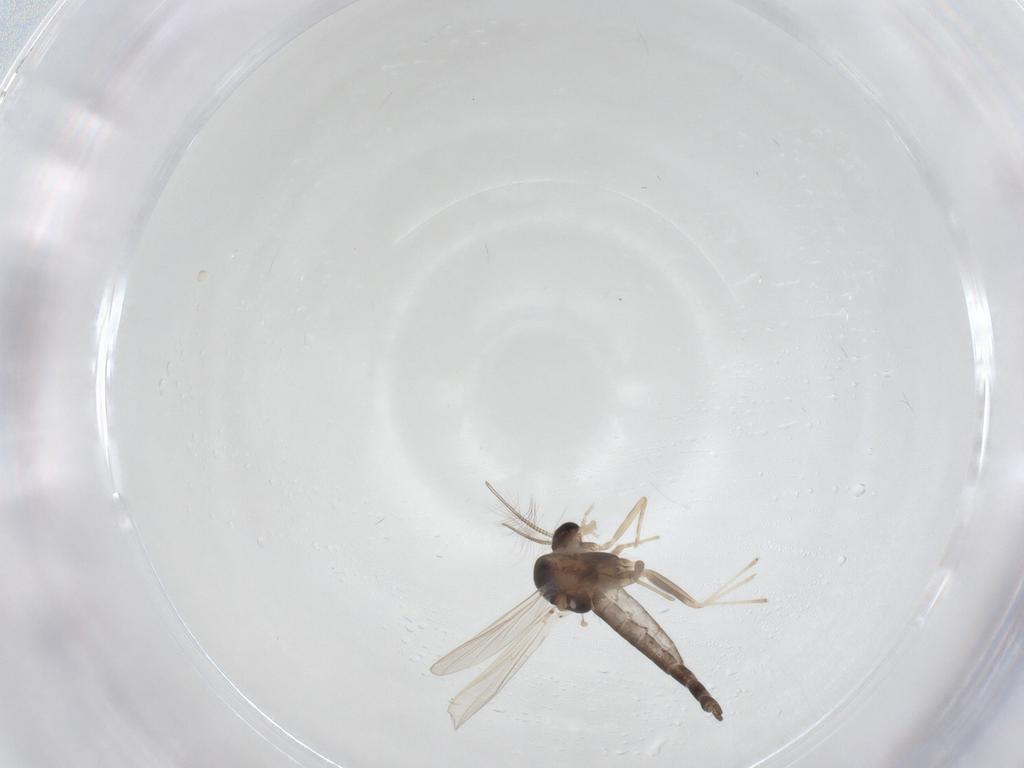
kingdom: Animalia
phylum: Arthropoda
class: Insecta
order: Diptera
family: Chironomidae
